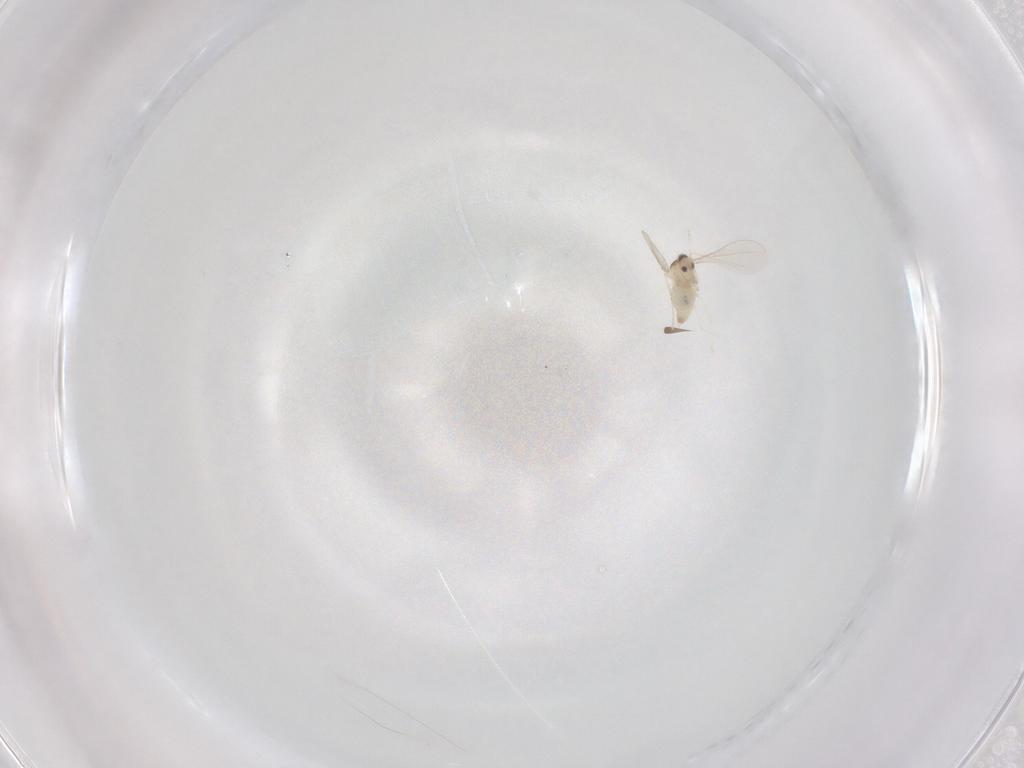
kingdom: Animalia
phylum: Arthropoda
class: Insecta
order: Diptera
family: Cecidomyiidae
